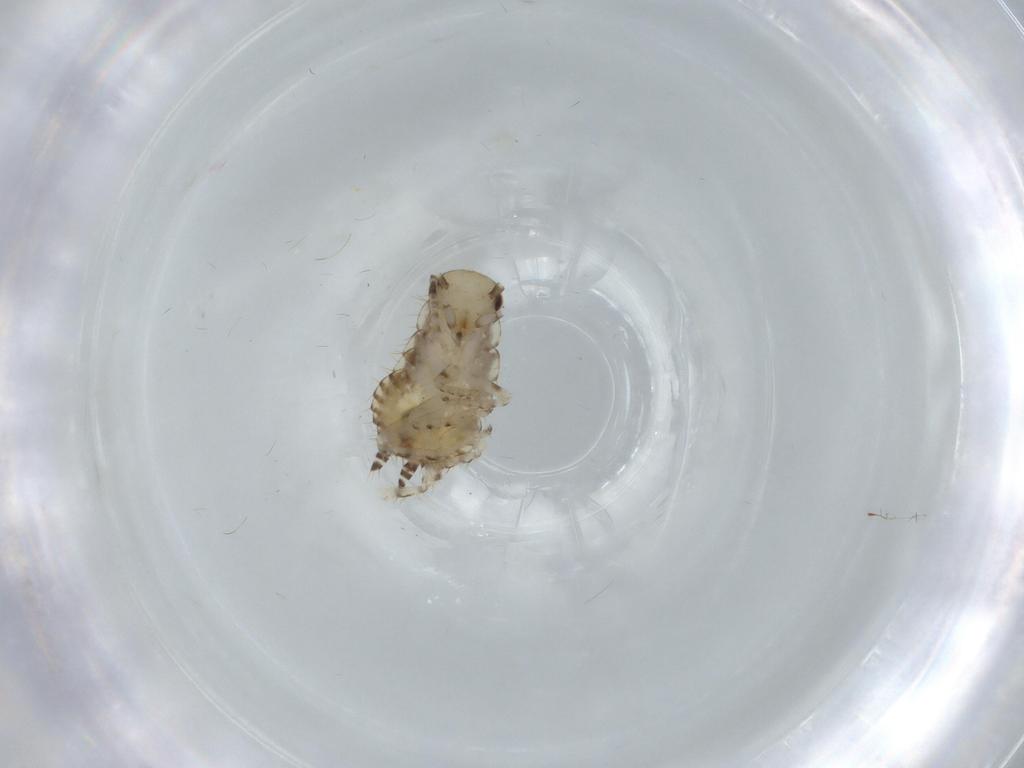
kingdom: Animalia
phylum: Arthropoda
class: Insecta
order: Blattodea
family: Ectobiidae
